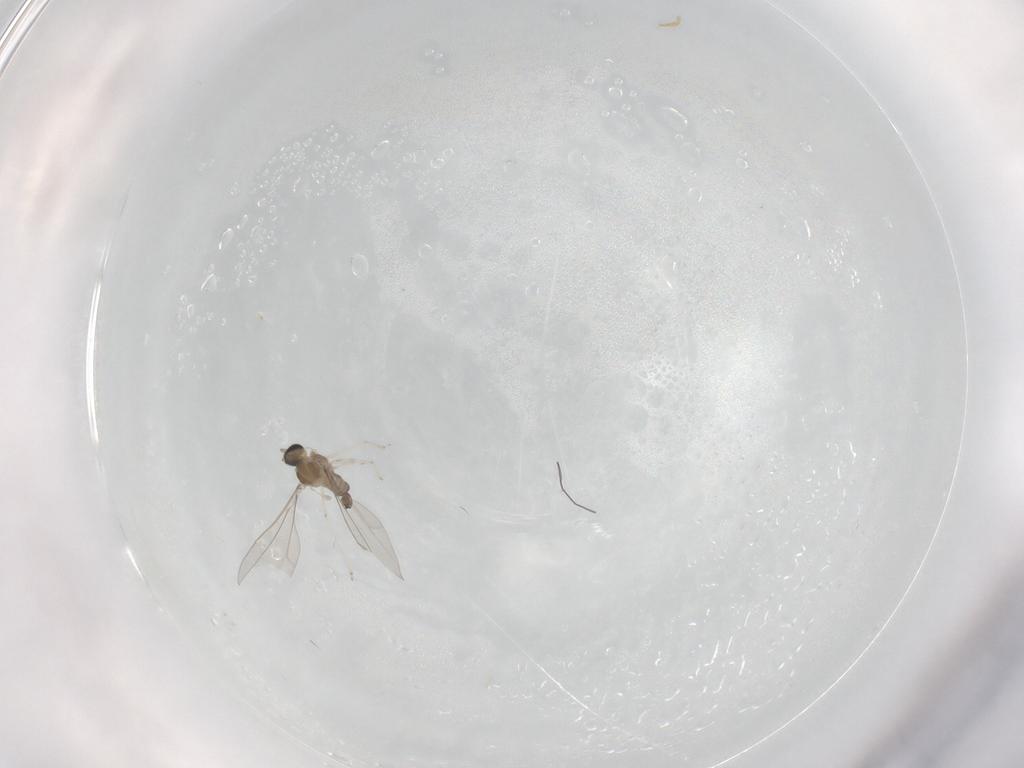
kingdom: Animalia
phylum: Arthropoda
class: Insecta
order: Diptera
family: Cecidomyiidae
